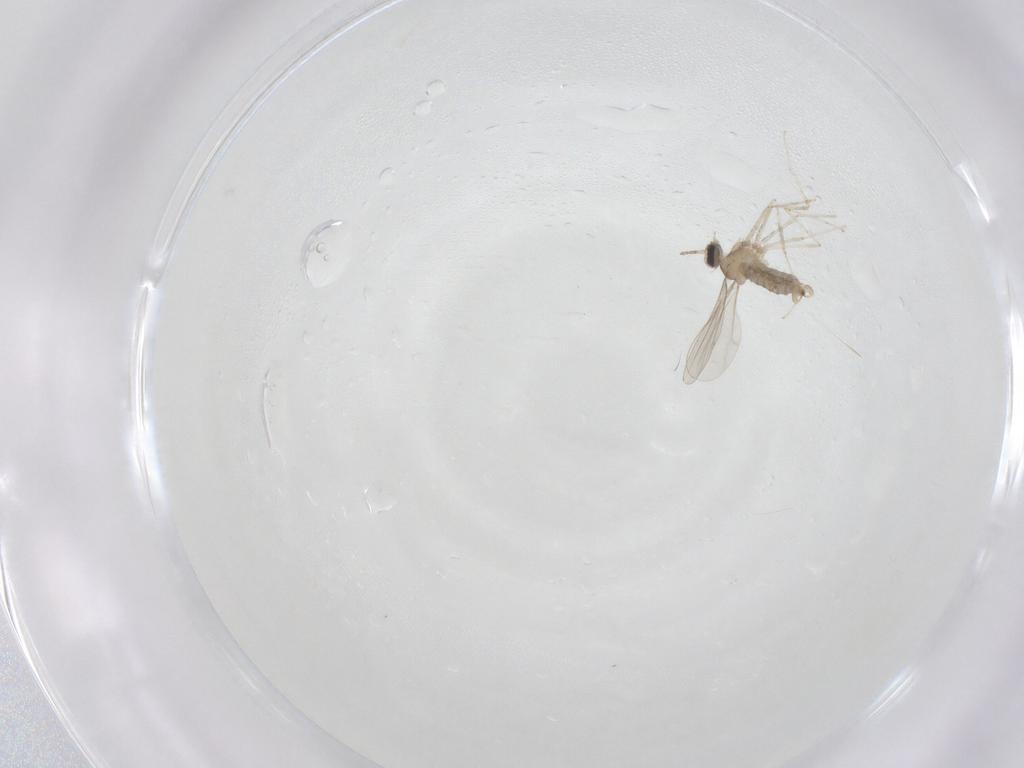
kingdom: Animalia
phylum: Arthropoda
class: Insecta
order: Diptera
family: Cecidomyiidae
